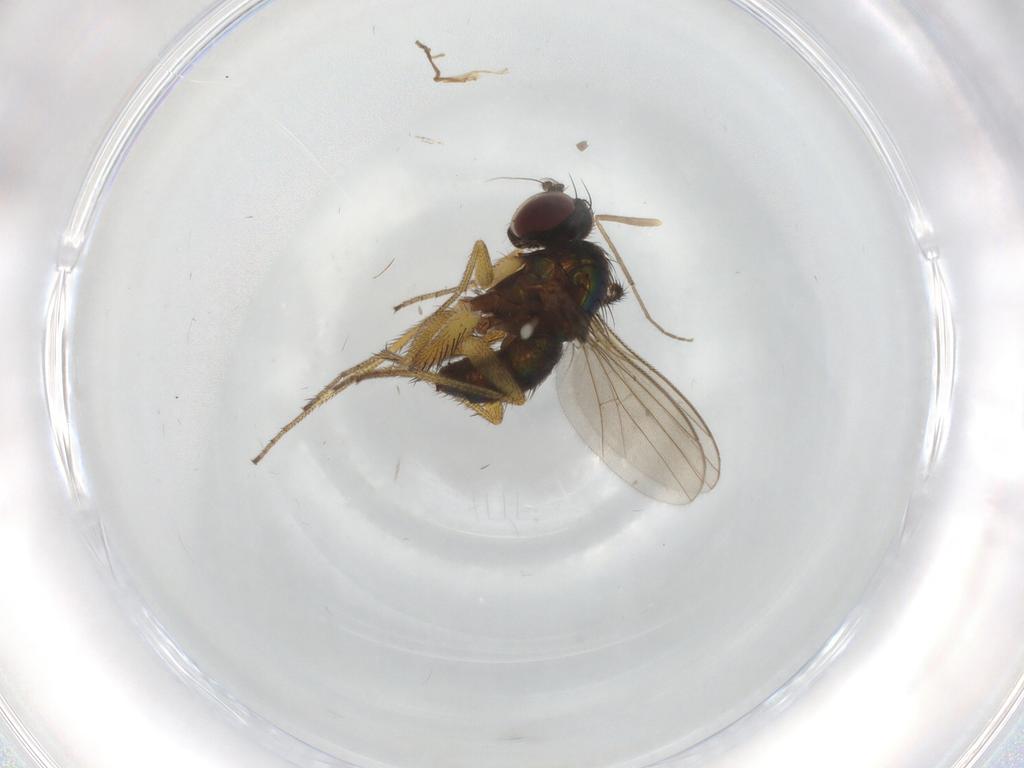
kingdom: Animalia
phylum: Arthropoda
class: Insecta
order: Diptera
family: Muscidae
